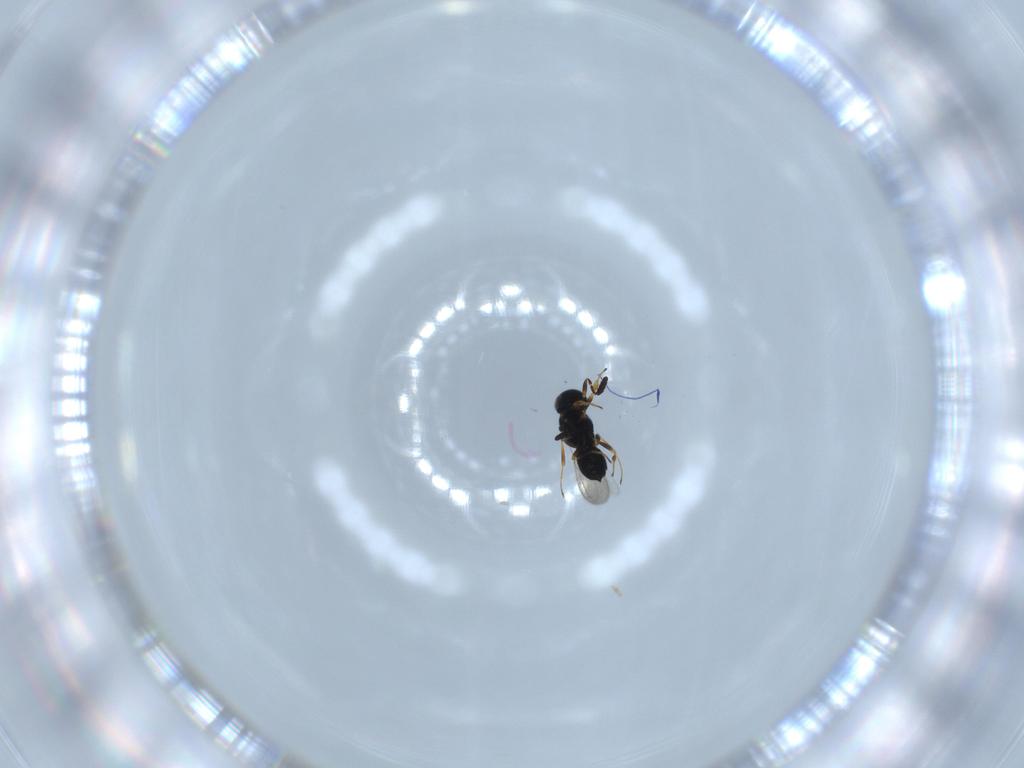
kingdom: Animalia
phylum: Arthropoda
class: Insecta
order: Hymenoptera
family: Scelionidae
